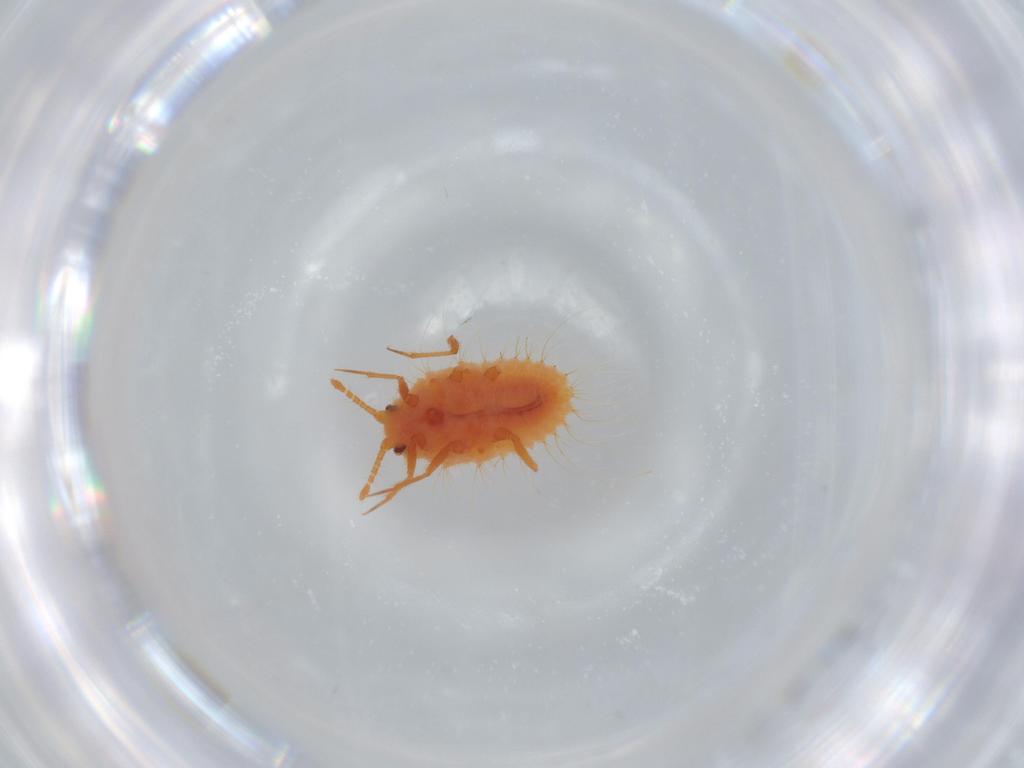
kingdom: Animalia
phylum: Arthropoda
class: Insecta
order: Hemiptera
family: Coccoidea_incertae_sedis
